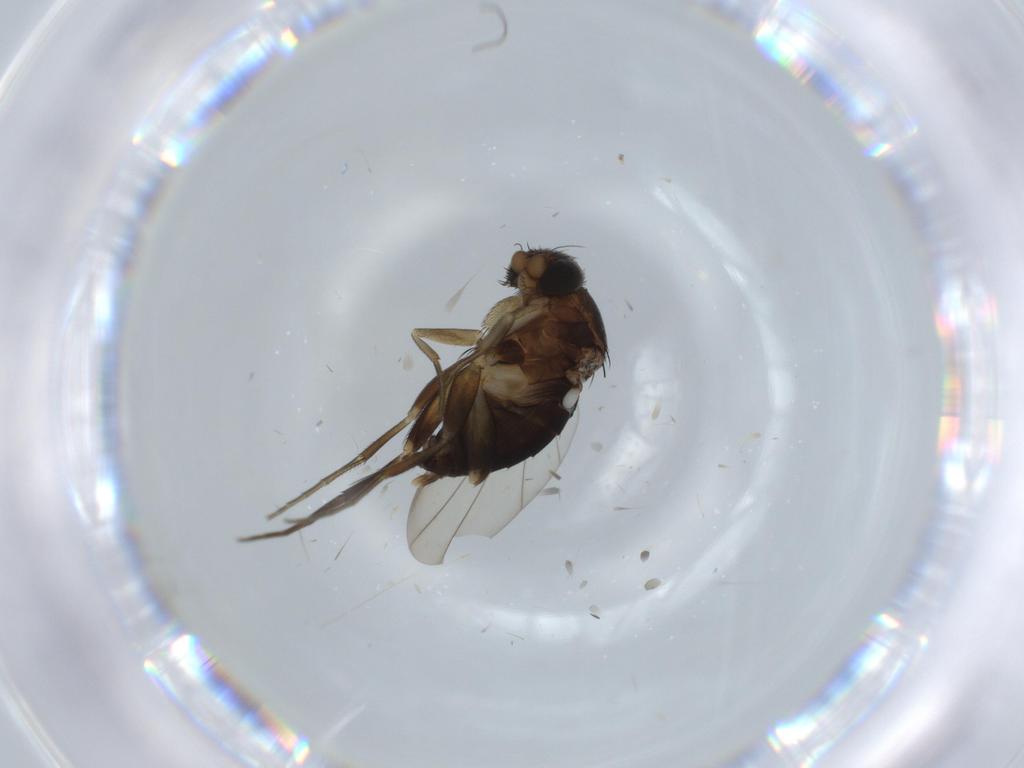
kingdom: Animalia
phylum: Arthropoda
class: Insecta
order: Diptera
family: Phoridae
